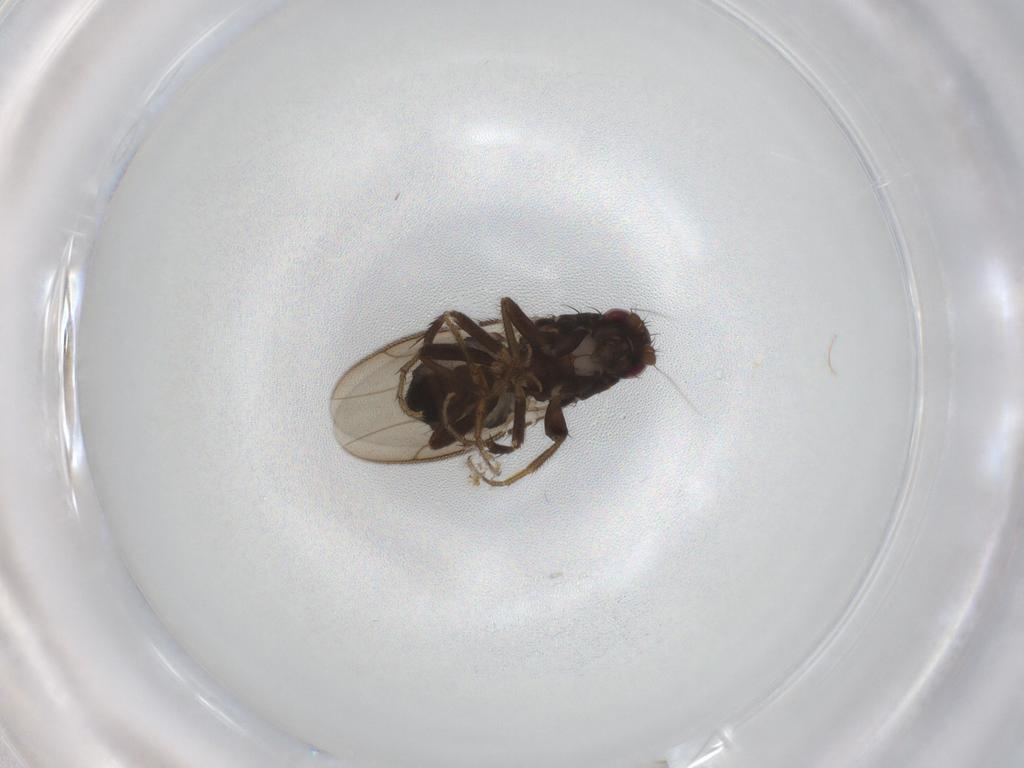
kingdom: Animalia
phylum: Arthropoda
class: Insecta
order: Diptera
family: Sphaeroceridae
